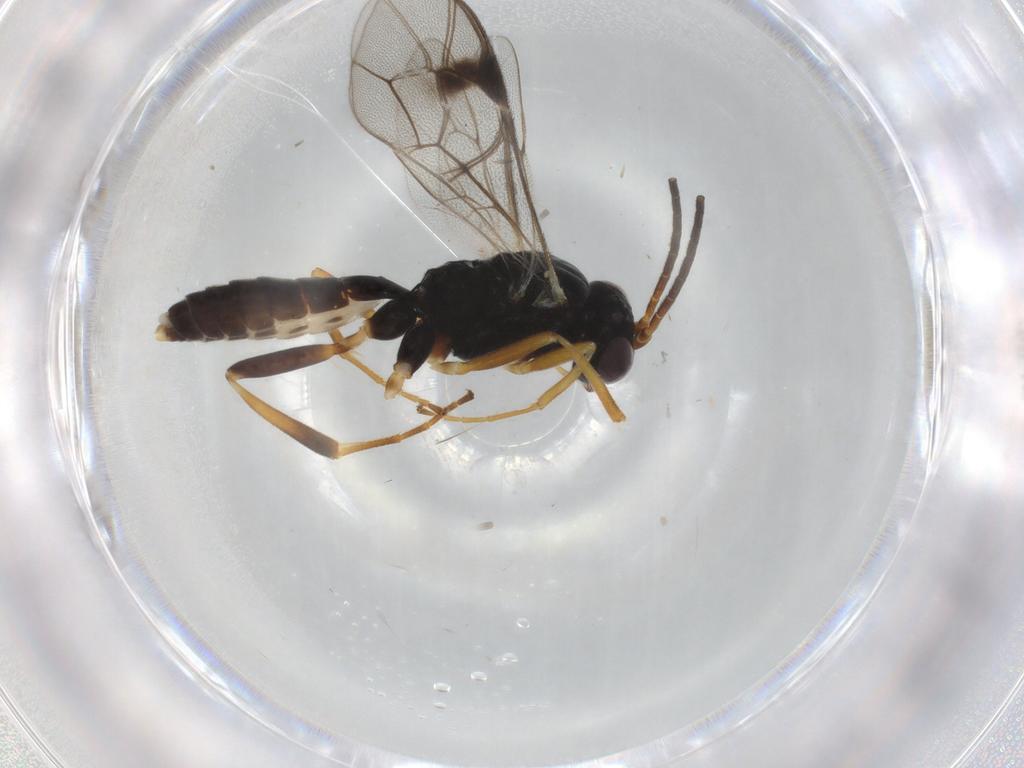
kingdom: Animalia
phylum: Arthropoda
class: Insecta
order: Hymenoptera
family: Ichneumonidae
